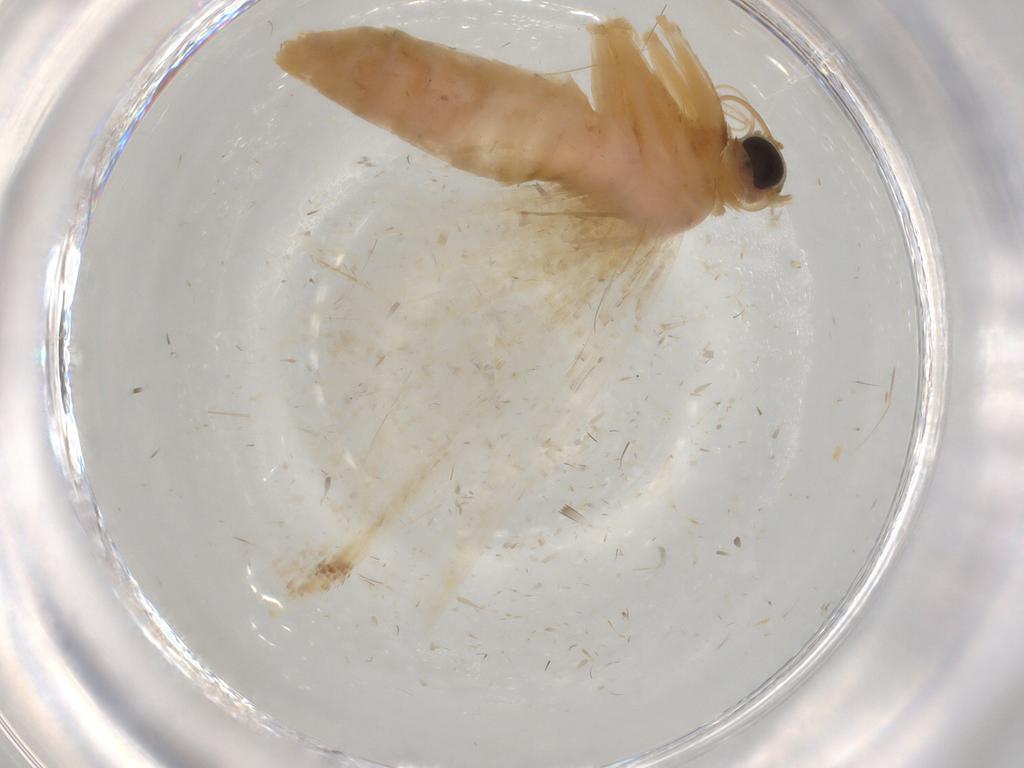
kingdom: Animalia
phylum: Arthropoda
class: Insecta
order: Lepidoptera
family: Geometridae
